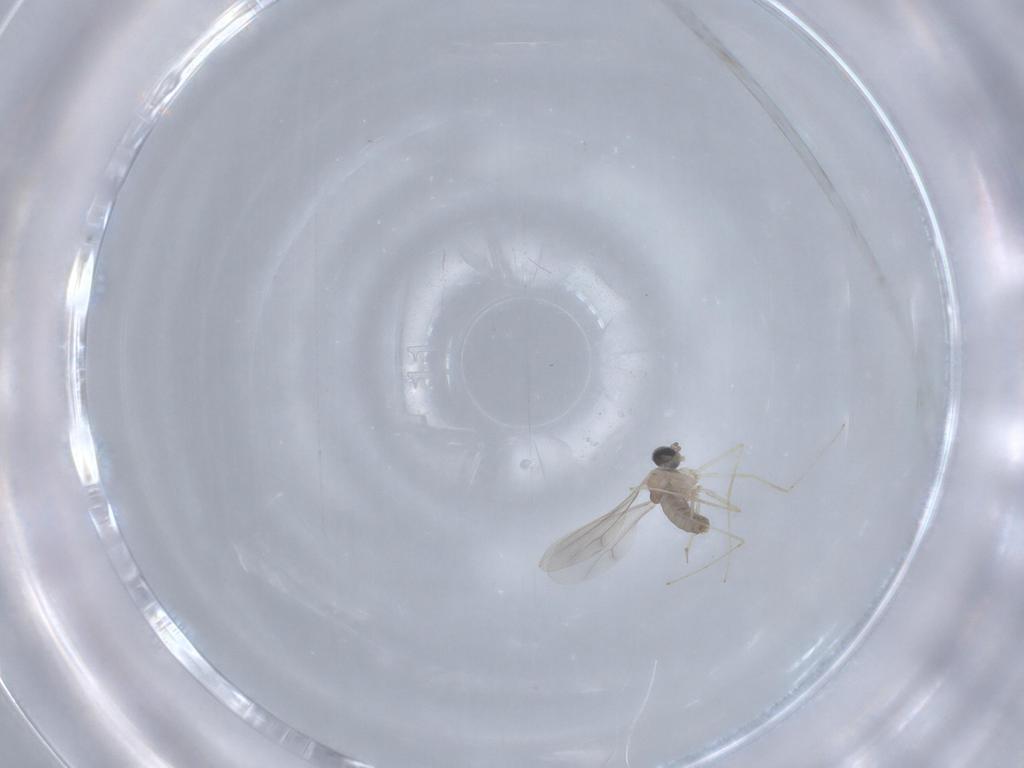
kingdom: Animalia
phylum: Arthropoda
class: Insecta
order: Diptera
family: Cecidomyiidae
